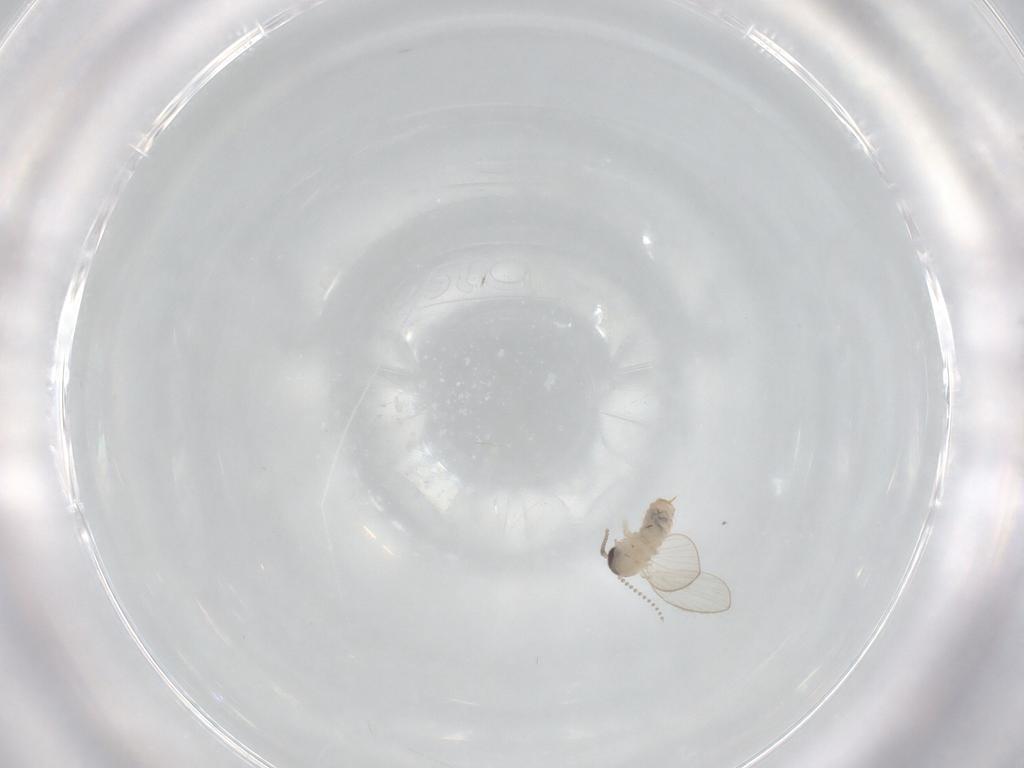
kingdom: Animalia
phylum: Arthropoda
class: Insecta
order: Diptera
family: Psychodidae
